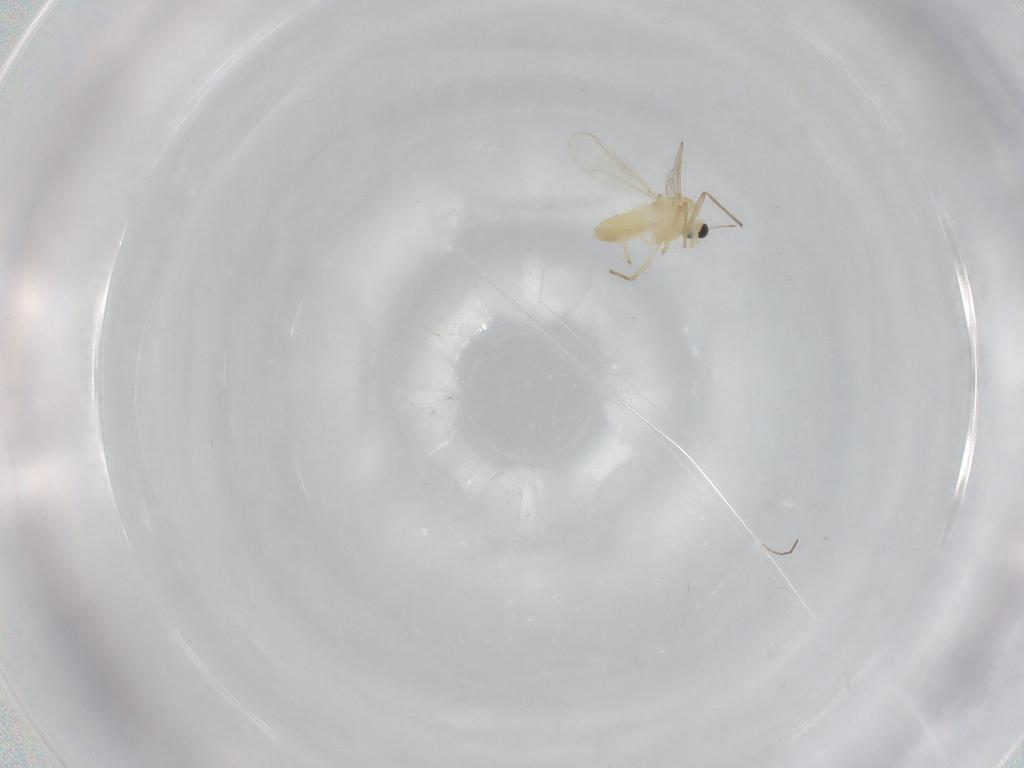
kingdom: Animalia
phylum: Arthropoda
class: Insecta
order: Diptera
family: Chironomidae
